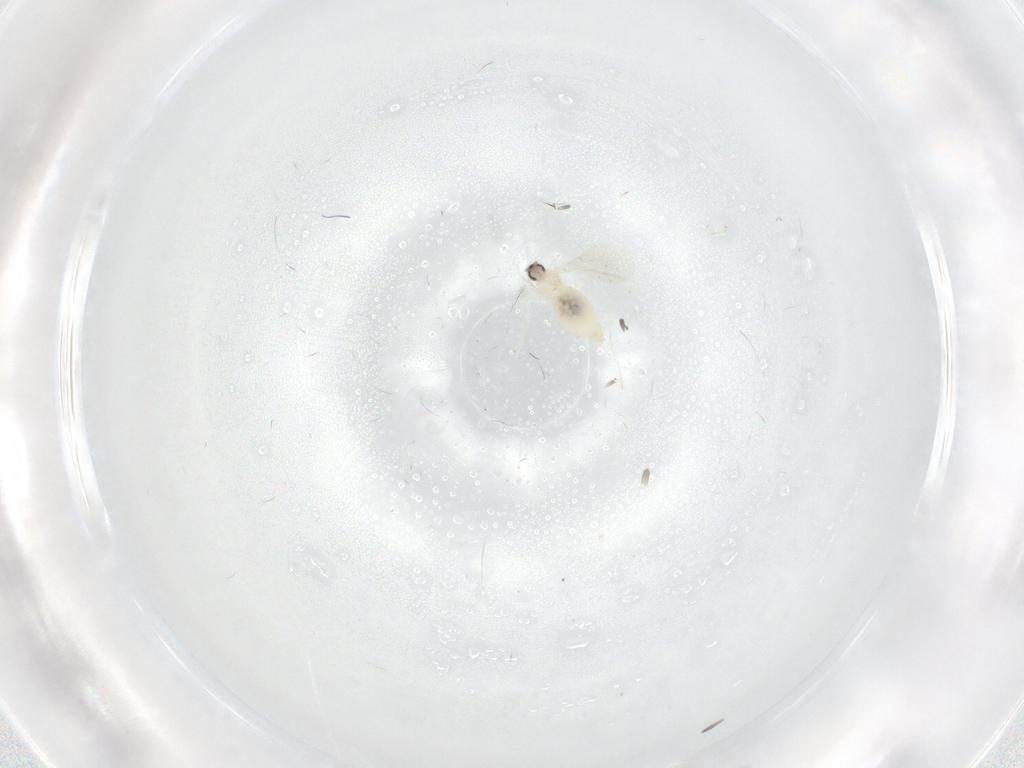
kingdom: Animalia
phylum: Arthropoda
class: Insecta
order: Diptera
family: Cecidomyiidae
